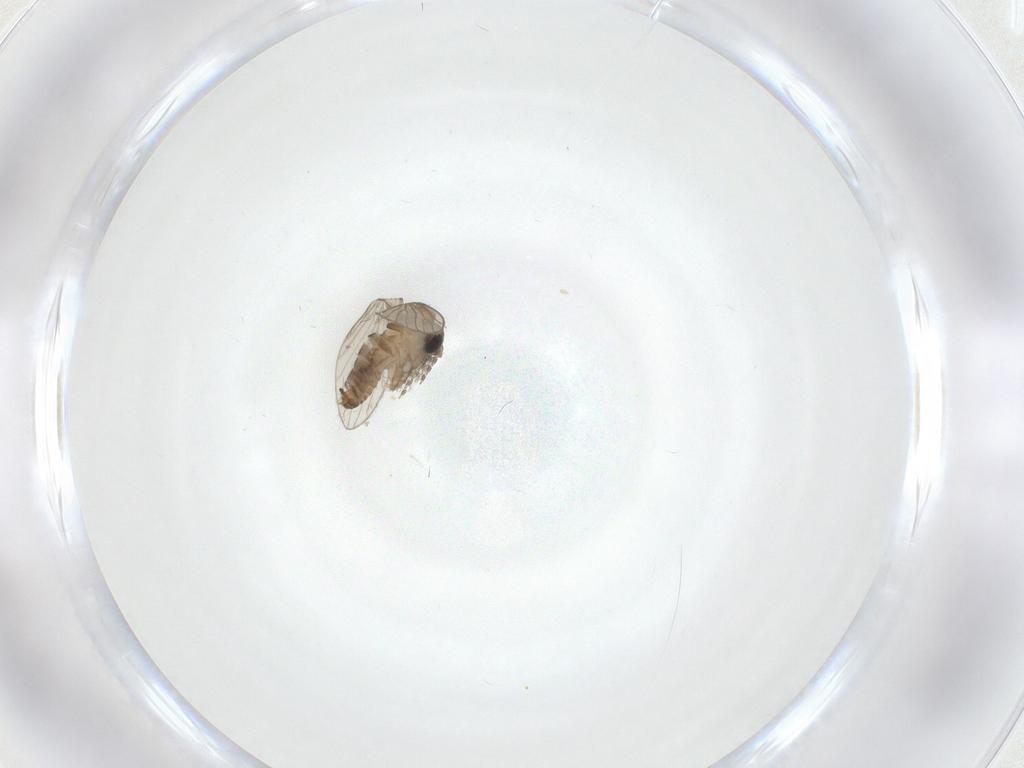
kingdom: Animalia
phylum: Arthropoda
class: Insecta
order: Diptera
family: Psychodidae
